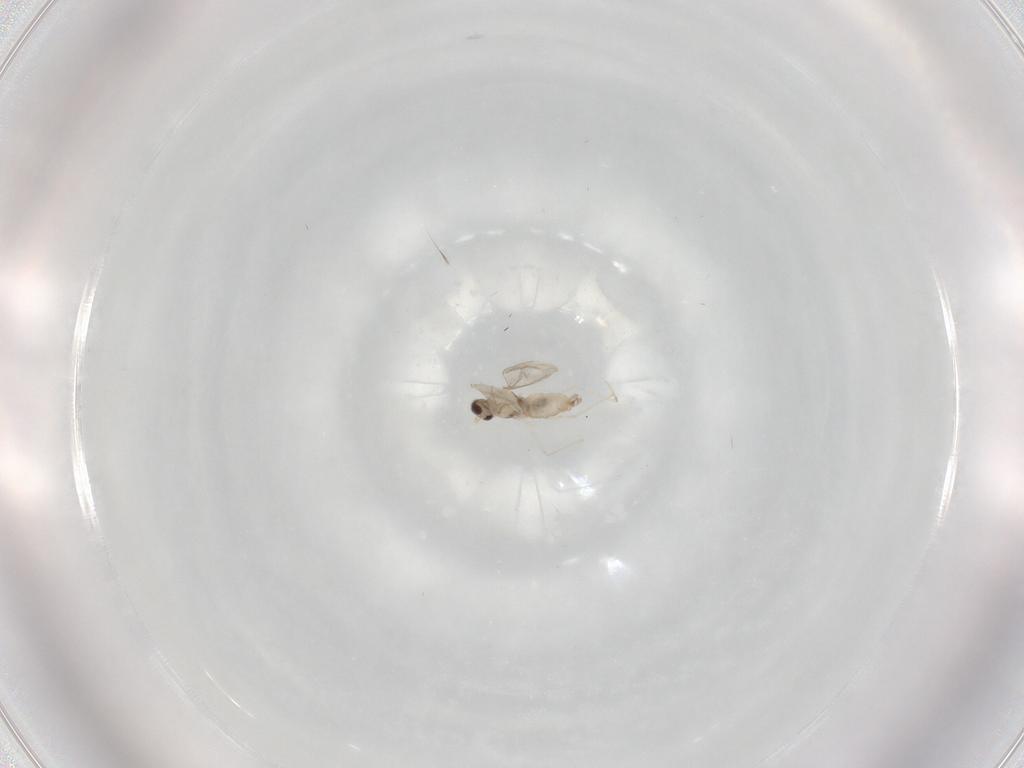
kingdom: Animalia
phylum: Arthropoda
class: Insecta
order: Diptera
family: Cecidomyiidae
